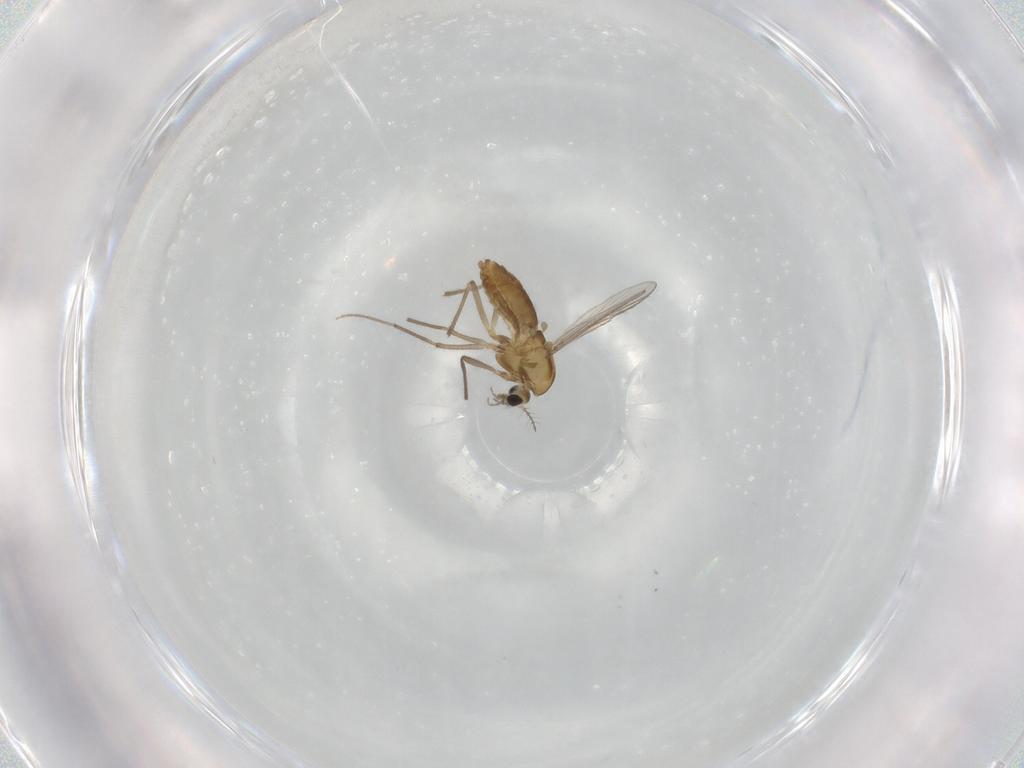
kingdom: Animalia
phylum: Arthropoda
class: Insecta
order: Diptera
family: Chironomidae
